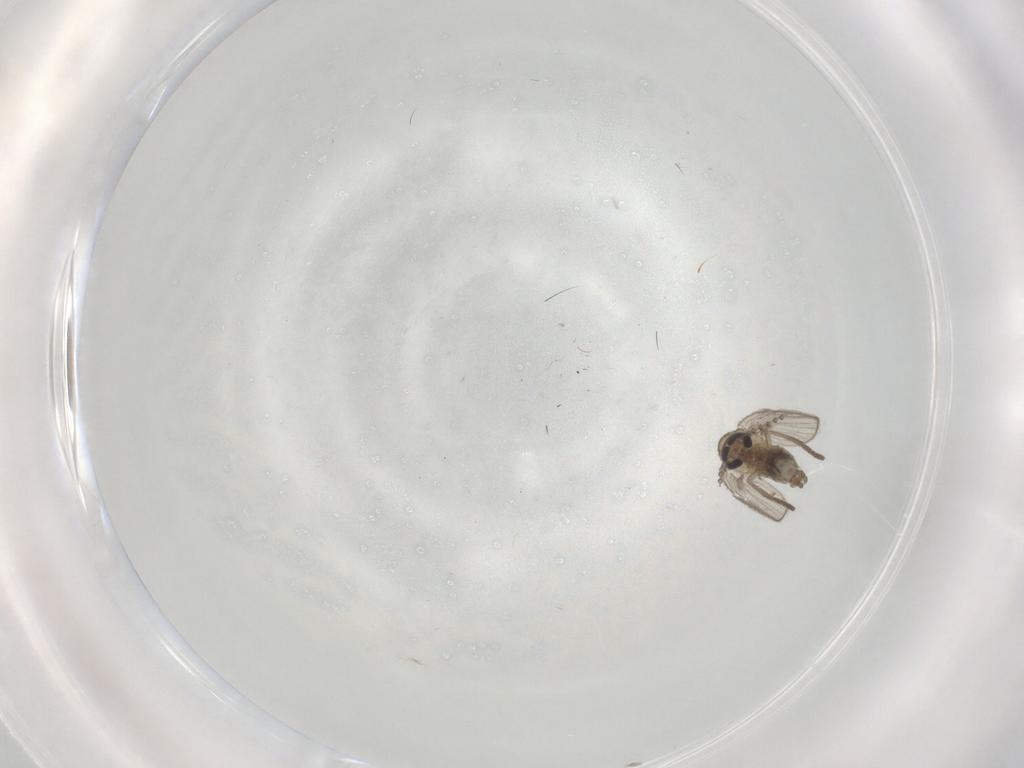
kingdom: Animalia
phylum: Arthropoda
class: Insecta
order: Diptera
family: Psychodidae
